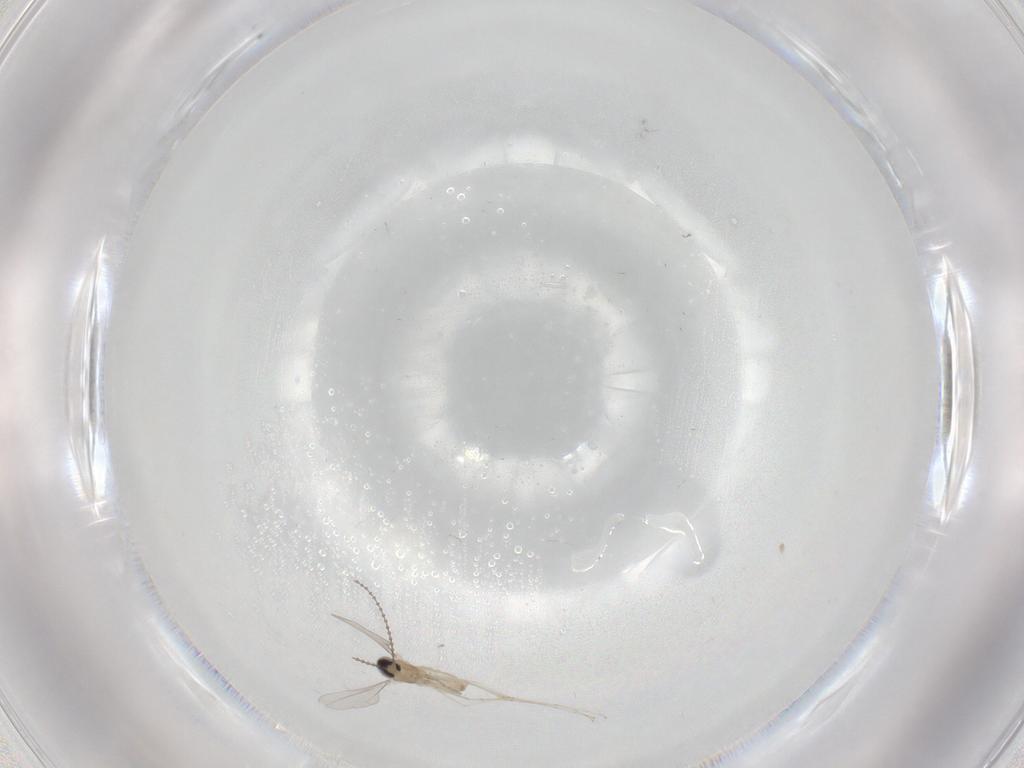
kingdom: Animalia
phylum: Arthropoda
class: Insecta
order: Diptera
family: Cecidomyiidae
